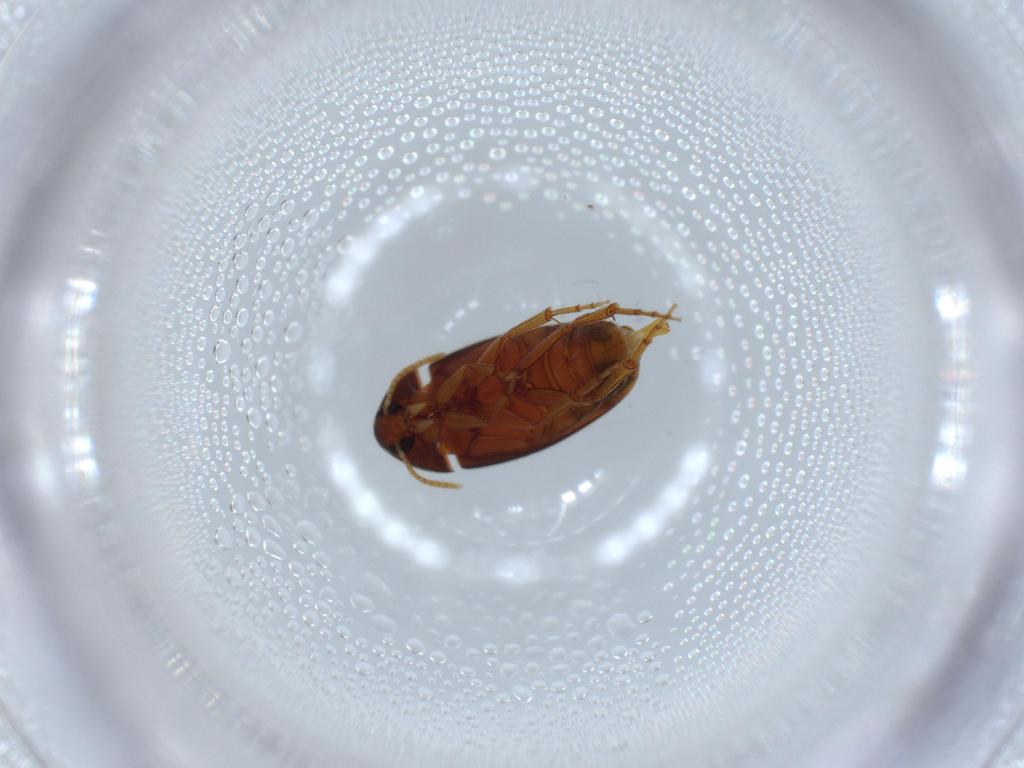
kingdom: Animalia
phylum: Arthropoda
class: Insecta
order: Coleoptera
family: Scraptiidae
